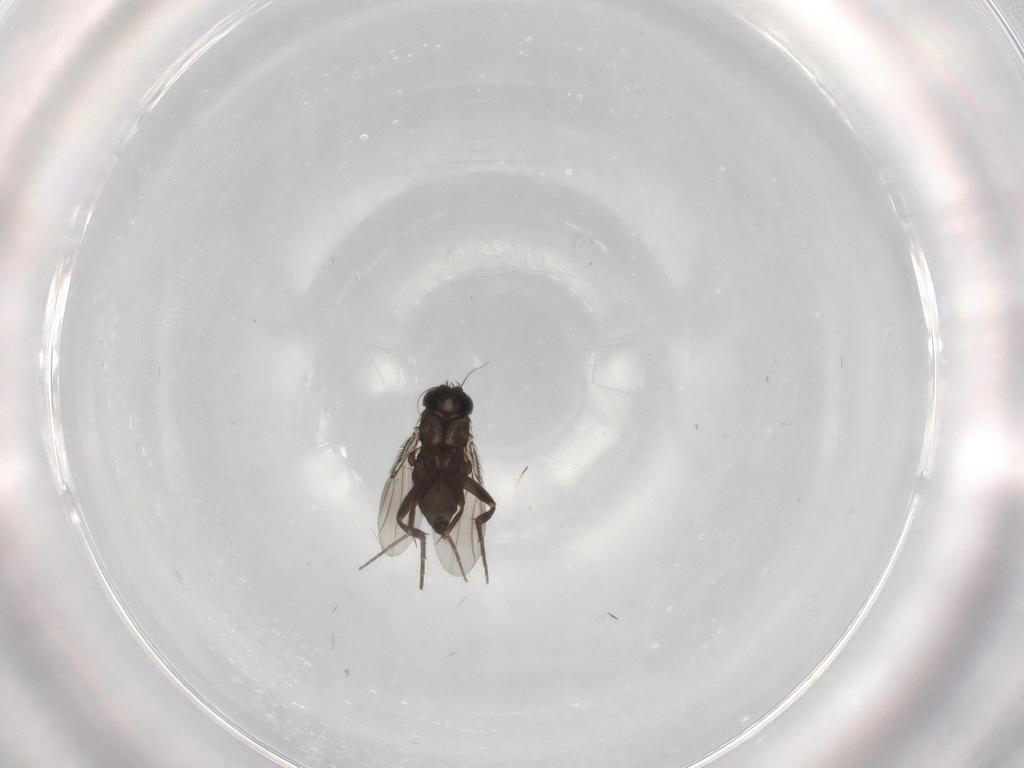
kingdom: Animalia
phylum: Arthropoda
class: Insecta
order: Diptera
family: Phoridae
